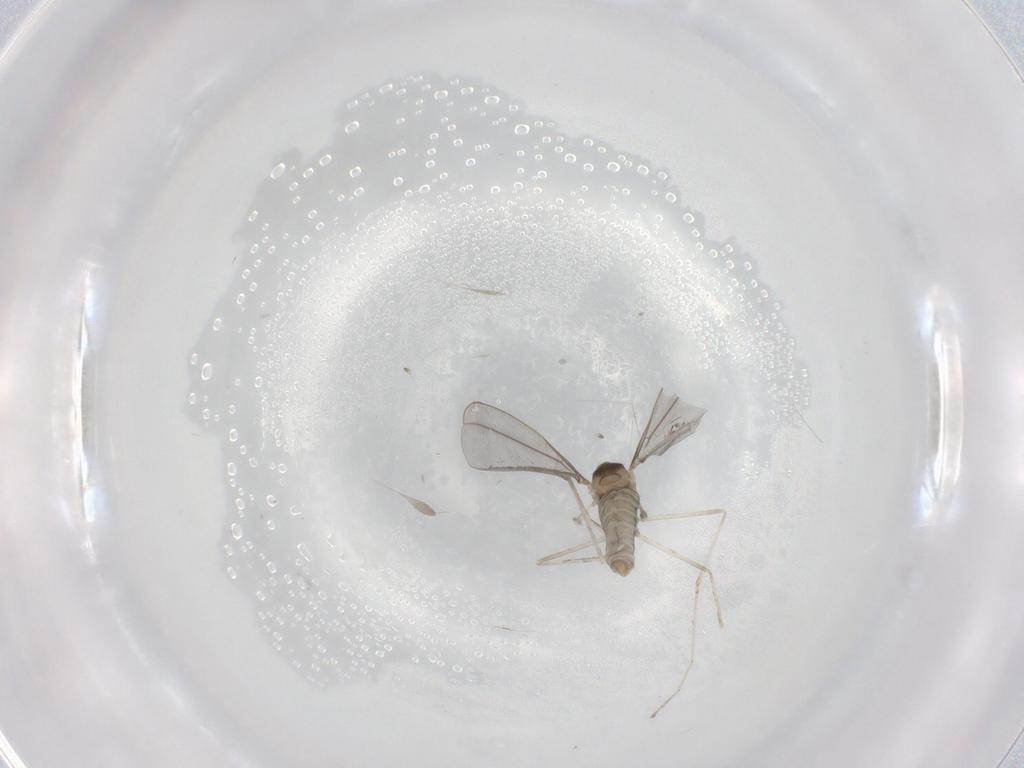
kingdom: Animalia
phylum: Arthropoda
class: Insecta
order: Diptera
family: Cecidomyiidae
